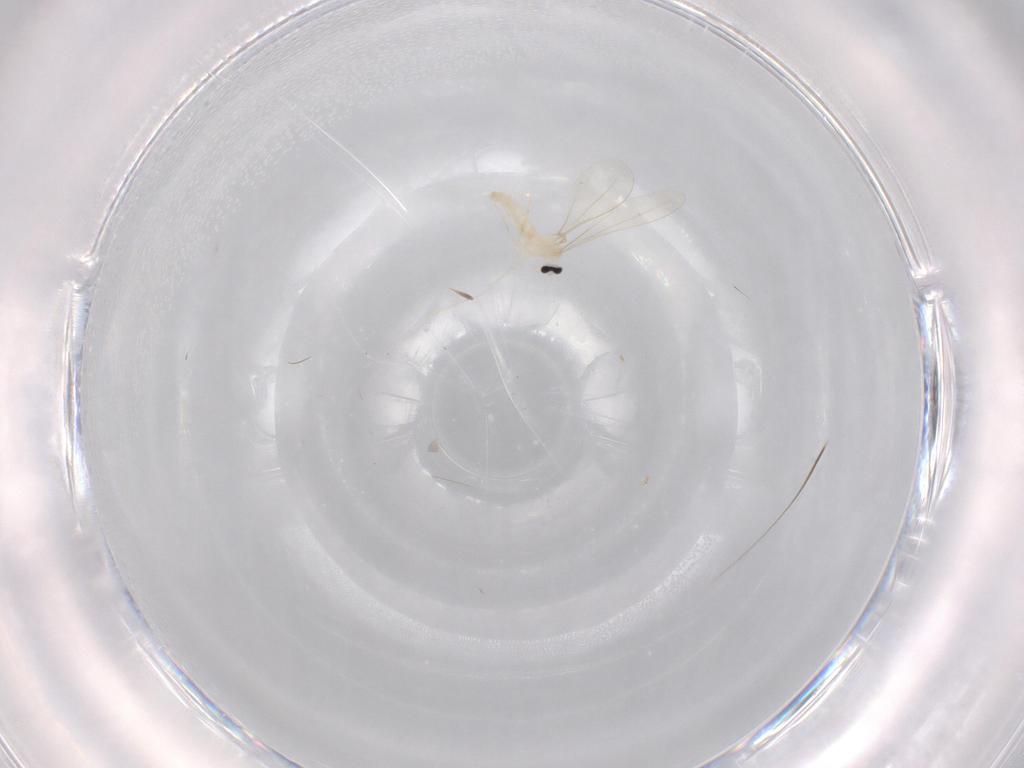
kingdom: Animalia
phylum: Arthropoda
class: Insecta
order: Diptera
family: Cecidomyiidae
